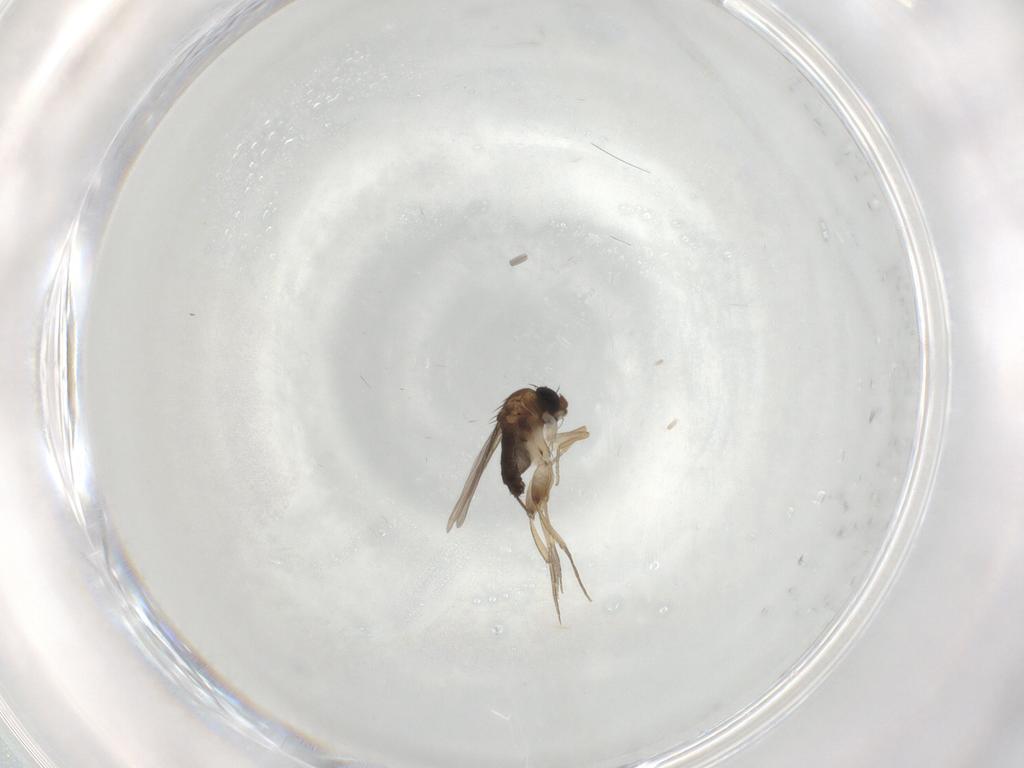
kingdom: Animalia
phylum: Arthropoda
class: Insecta
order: Diptera
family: Phoridae
